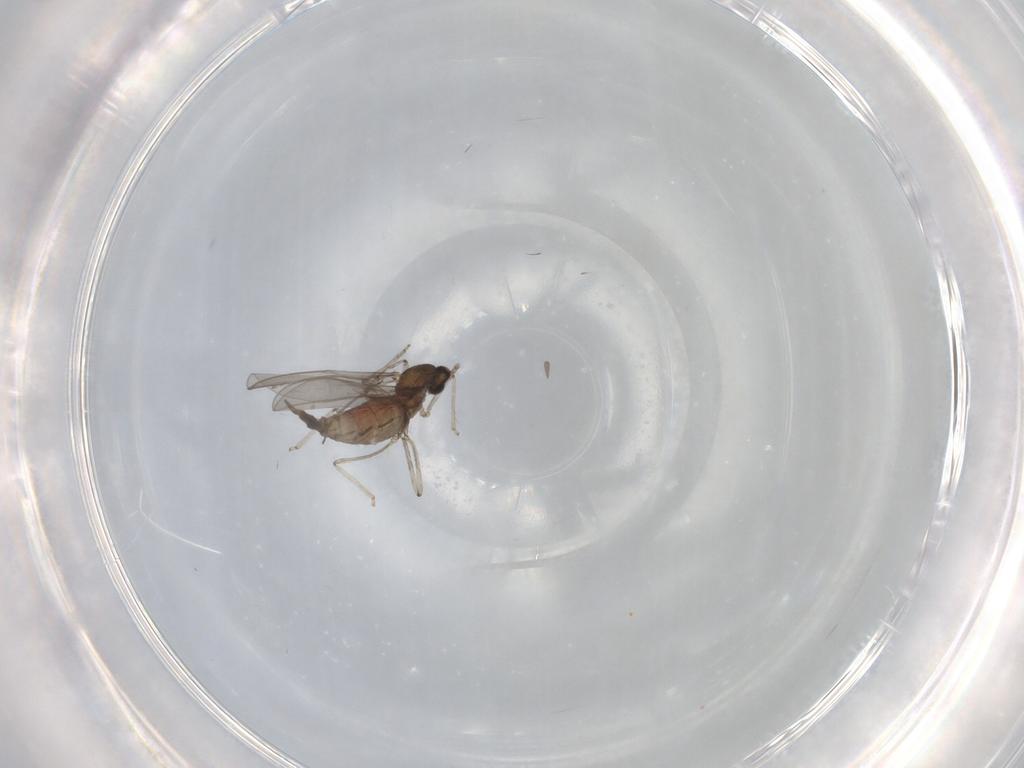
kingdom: Animalia
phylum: Arthropoda
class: Insecta
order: Diptera
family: Cecidomyiidae
